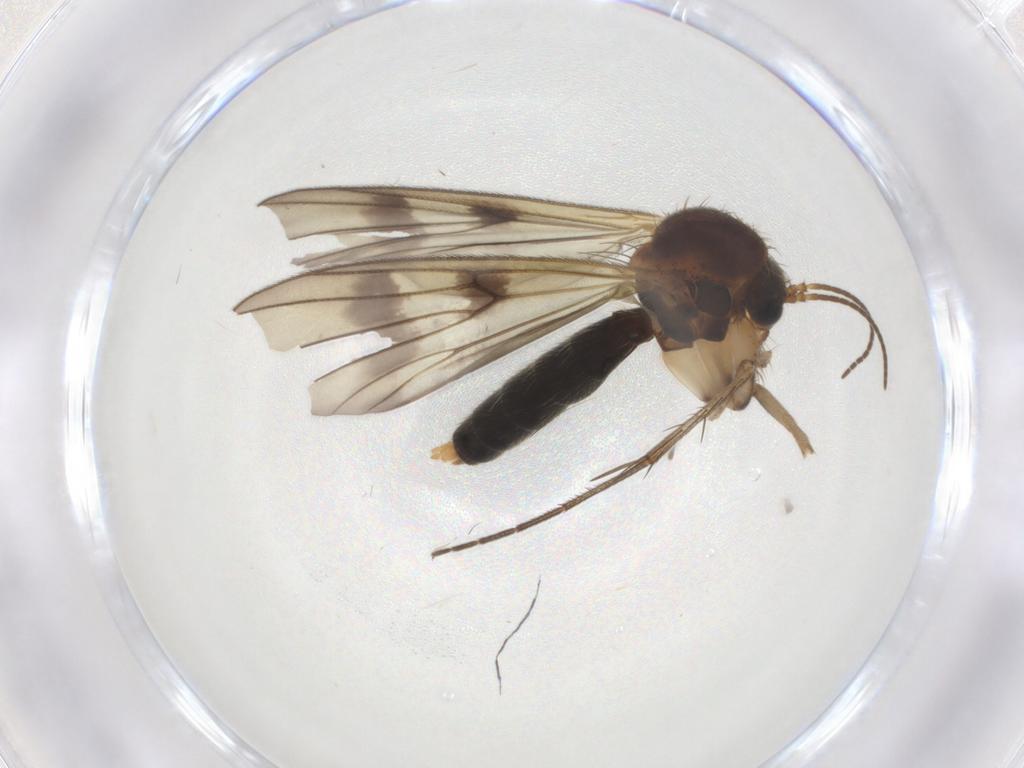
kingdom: Animalia
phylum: Arthropoda
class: Insecta
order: Diptera
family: Mycetophilidae
